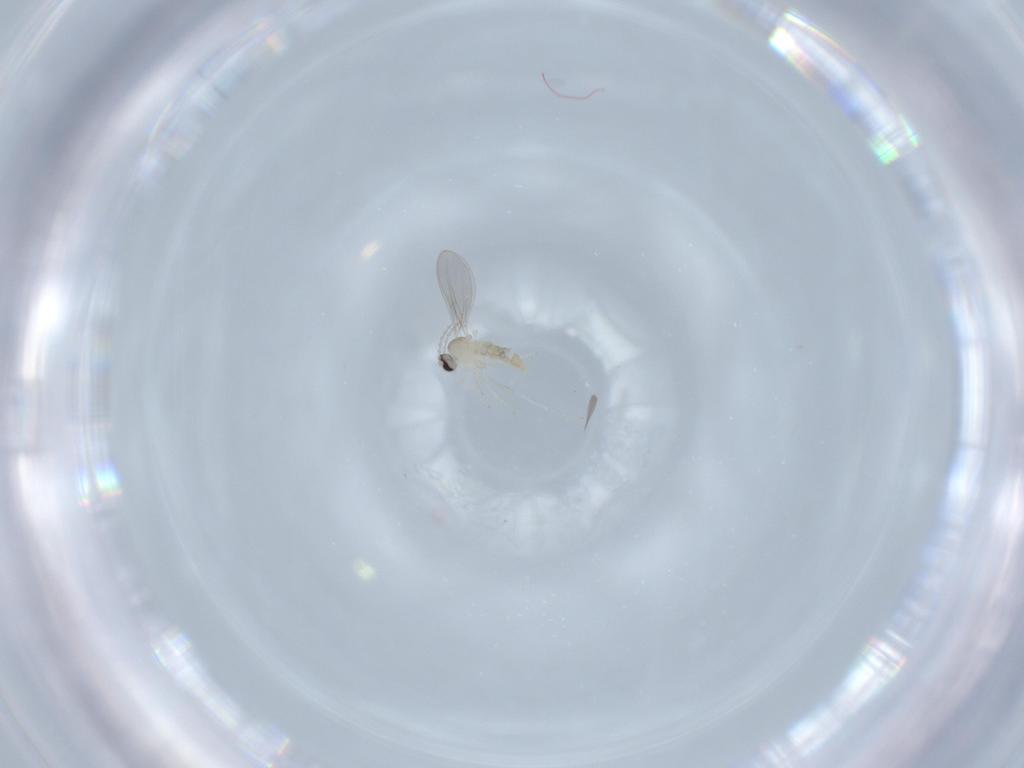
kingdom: Animalia
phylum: Arthropoda
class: Insecta
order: Diptera
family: Cecidomyiidae
